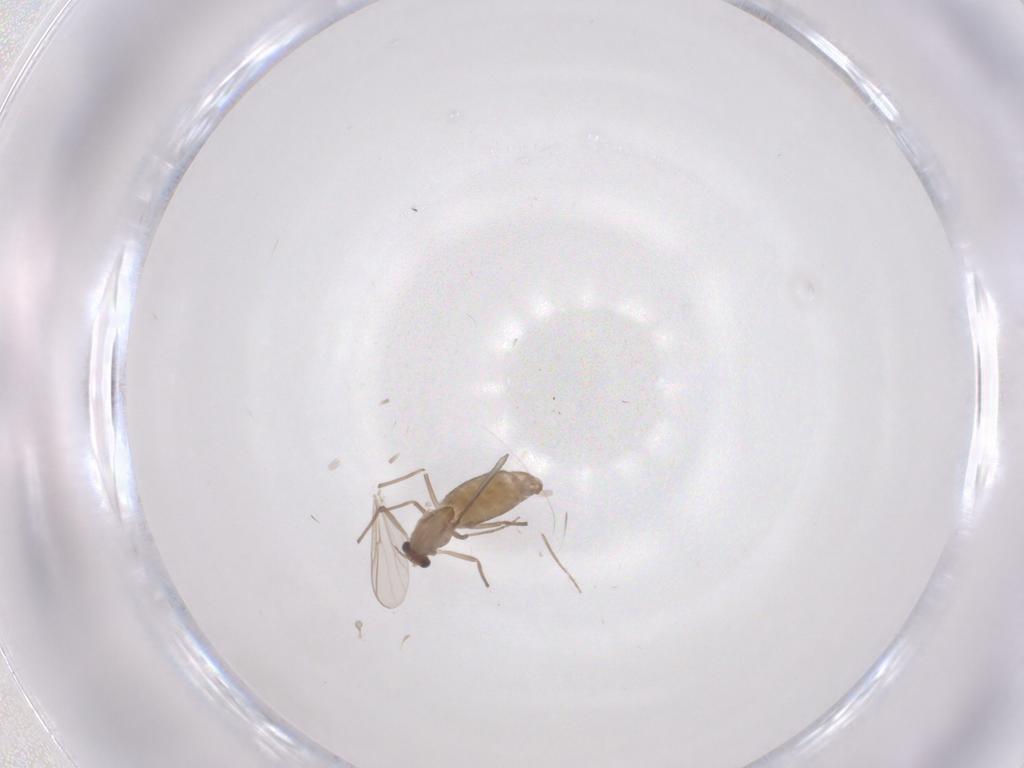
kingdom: Animalia
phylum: Arthropoda
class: Insecta
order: Diptera
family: Chironomidae
